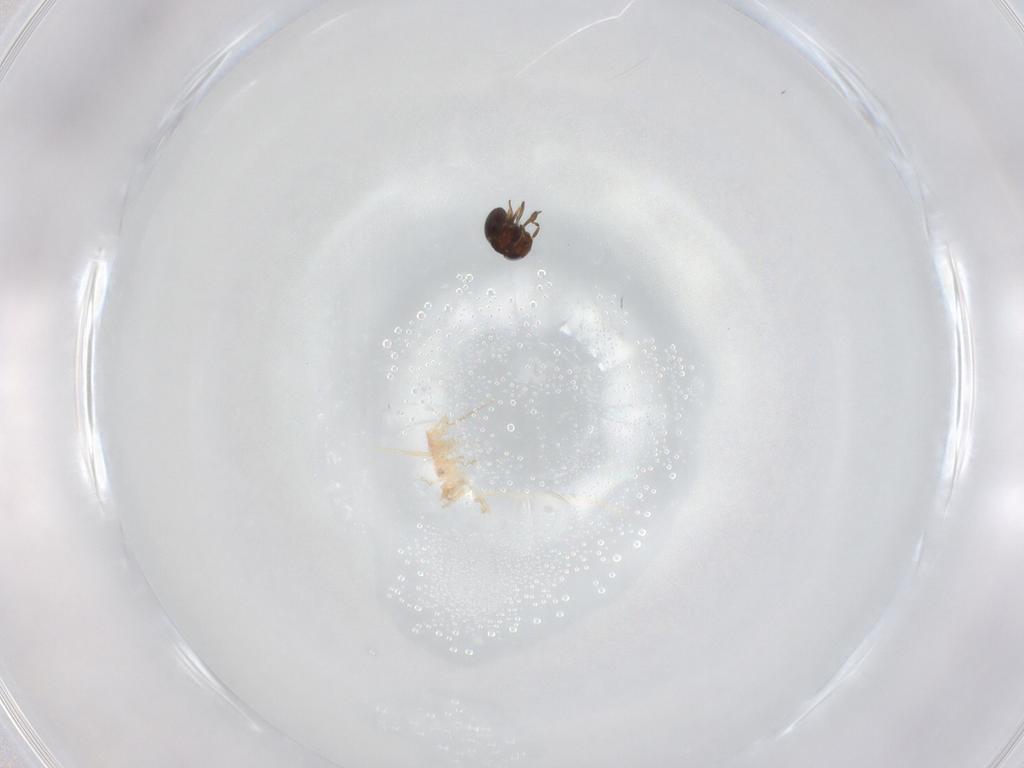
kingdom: Animalia
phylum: Arthropoda
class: Insecta
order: Hymenoptera
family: Scelionidae
